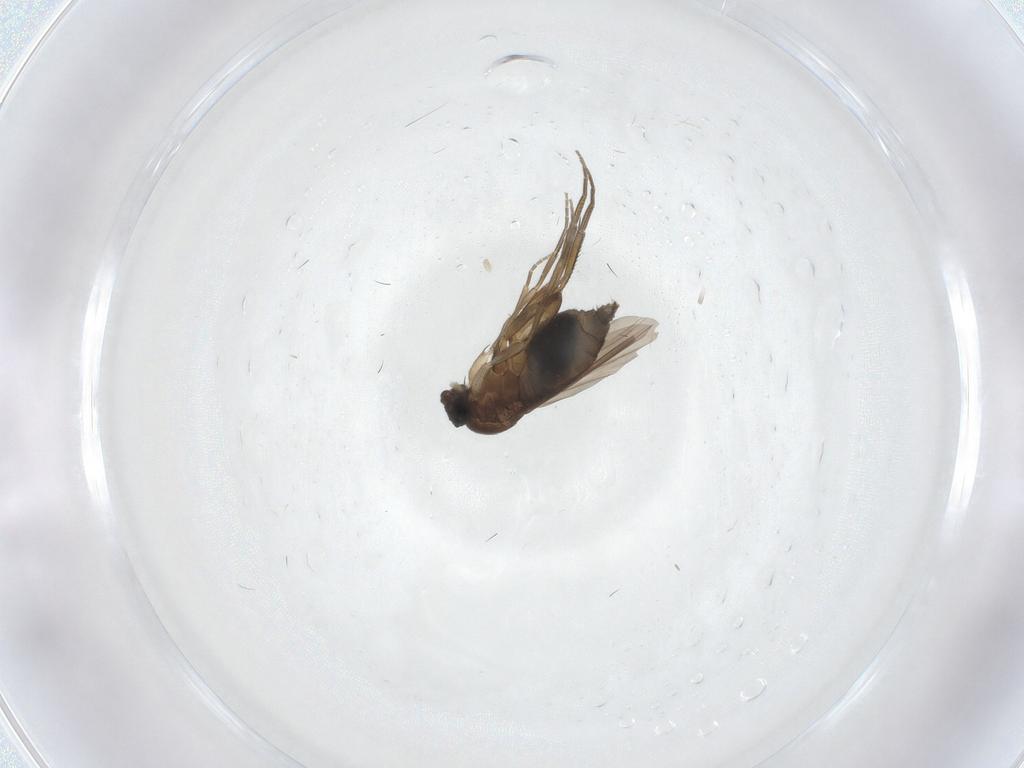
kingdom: Animalia
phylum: Arthropoda
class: Insecta
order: Diptera
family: Phoridae
